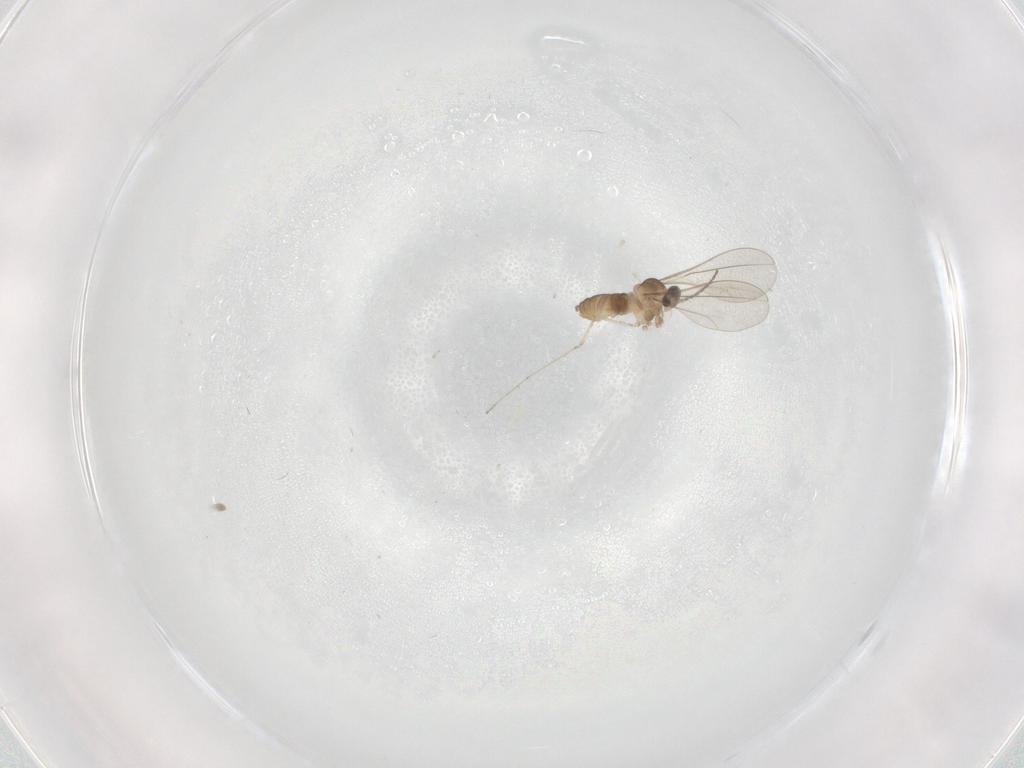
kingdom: Animalia
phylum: Arthropoda
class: Insecta
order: Diptera
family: Cecidomyiidae
